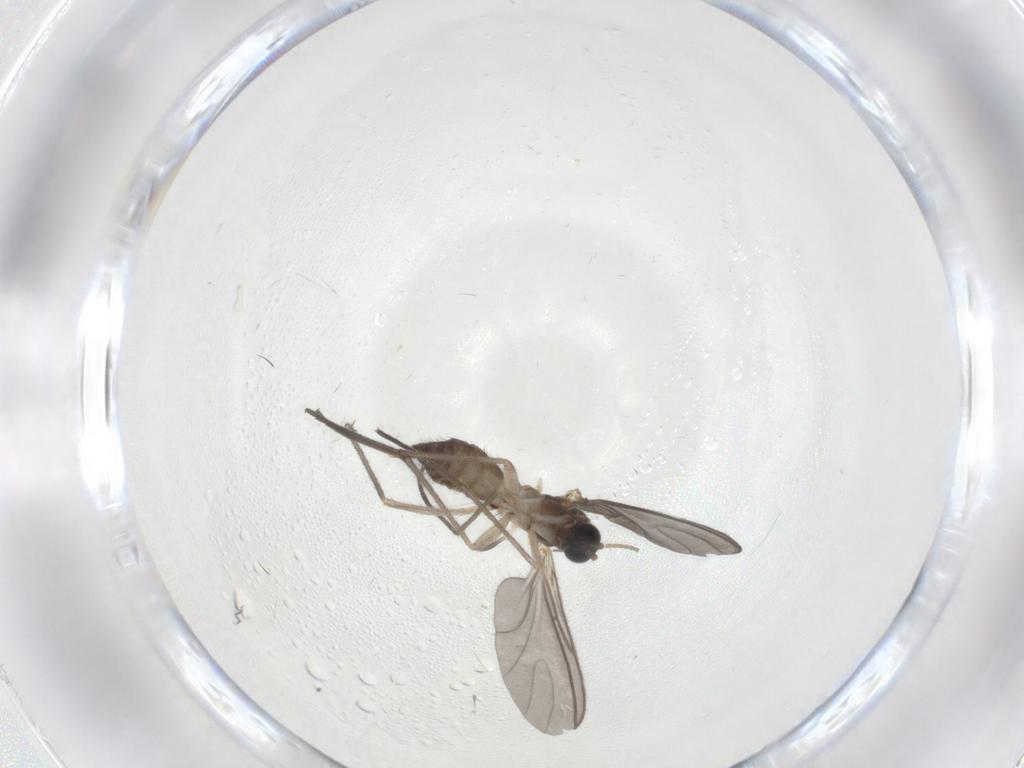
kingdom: Animalia
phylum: Arthropoda
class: Insecta
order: Diptera
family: Sciaridae
